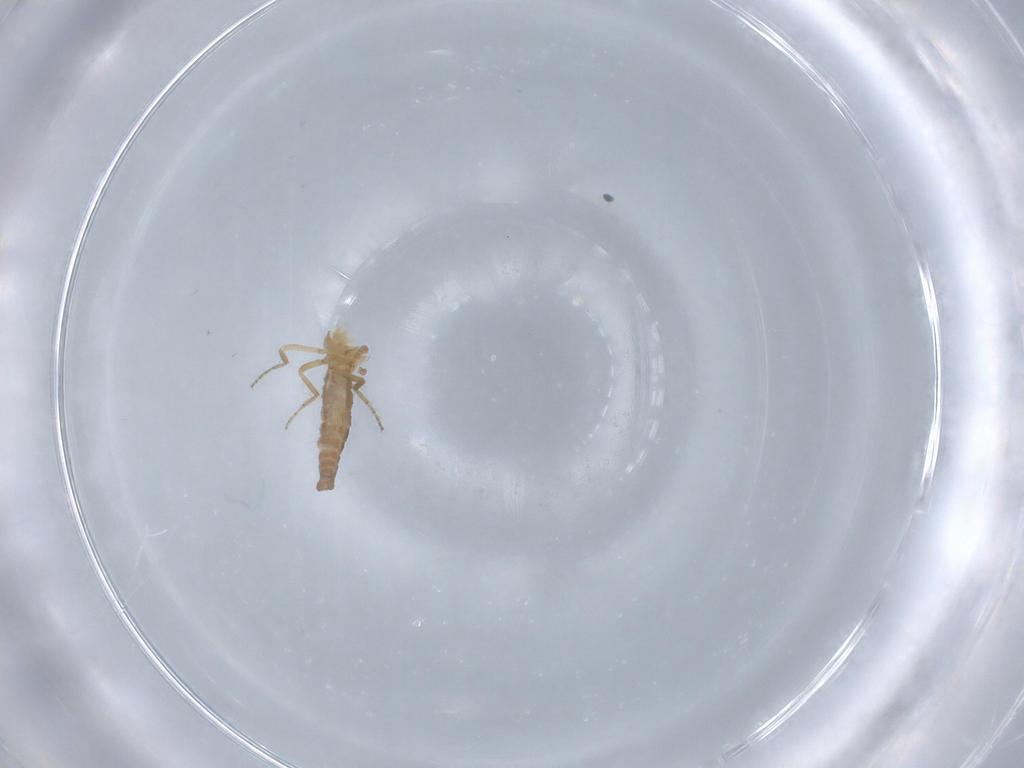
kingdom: Animalia
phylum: Arthropoda
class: Insecta
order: Diptera
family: Ceratopogonidae
